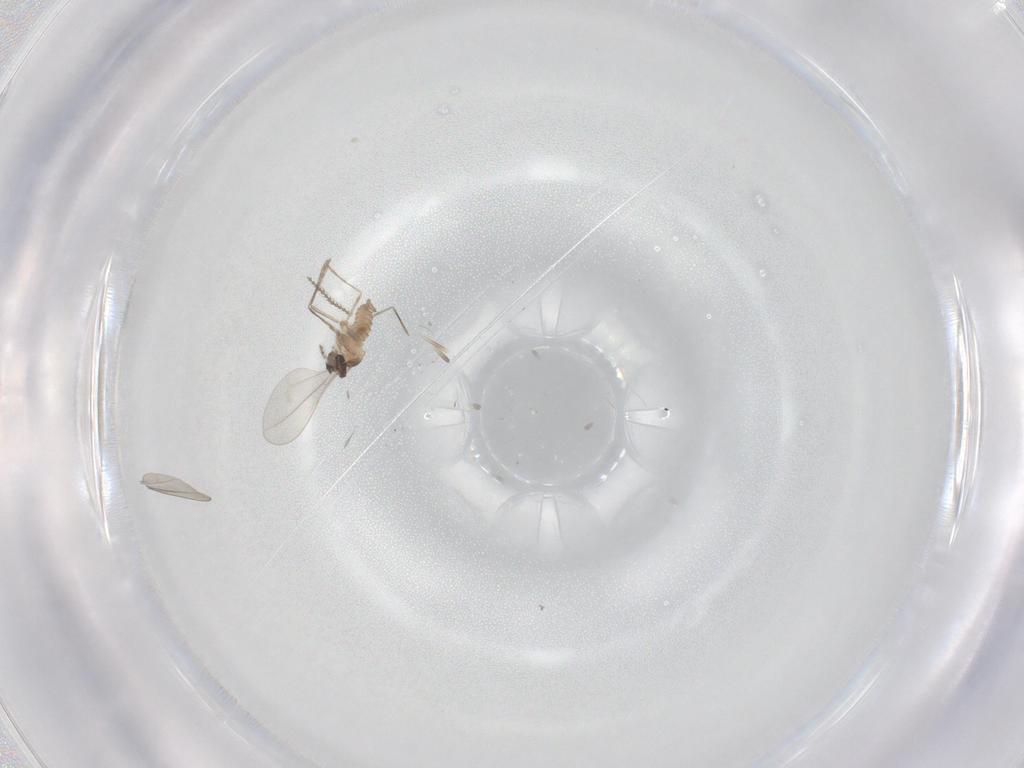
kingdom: Animalia
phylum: Arthropoda
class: Insecta
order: Diptera
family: Cecidomyiidae
